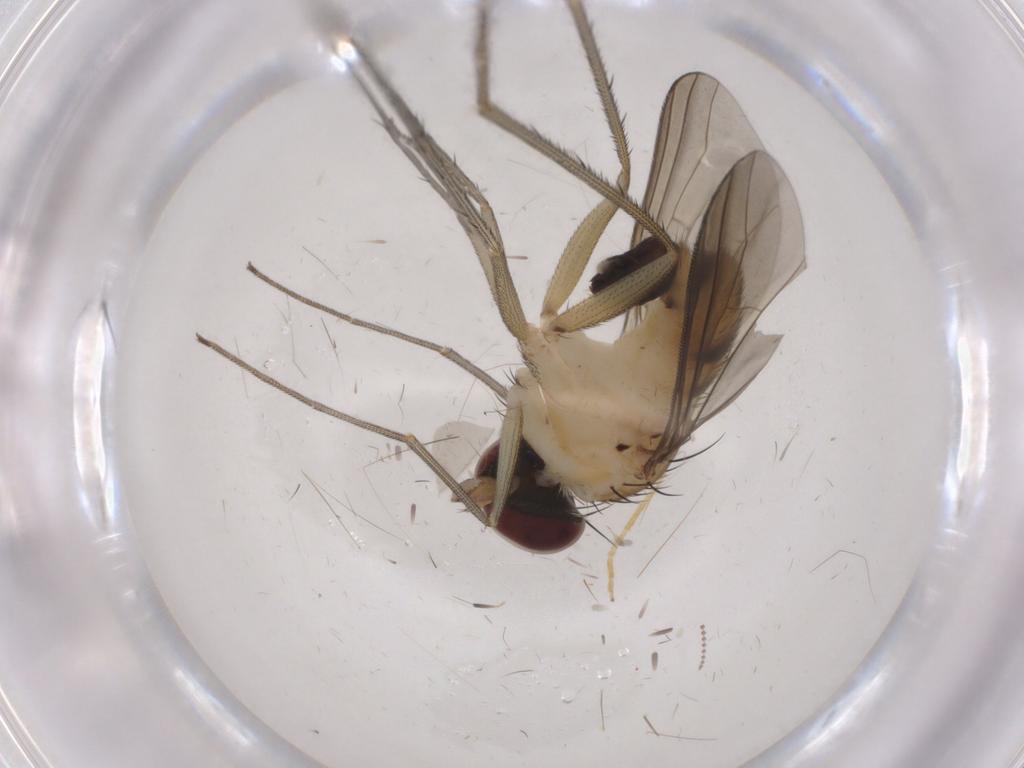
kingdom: Animalia
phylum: Arthropoda
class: Insecta
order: Diptera
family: Dolichopodidae
